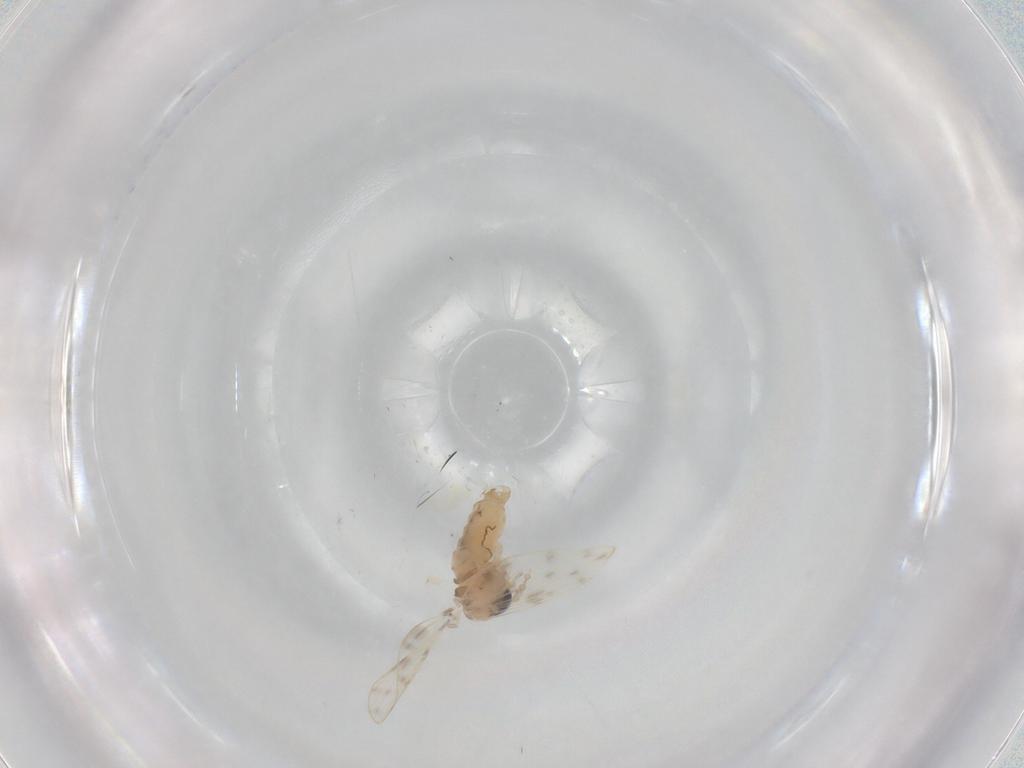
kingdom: Animalia
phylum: Arthropoda
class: Insecta
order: Diptera
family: Psychodidae
